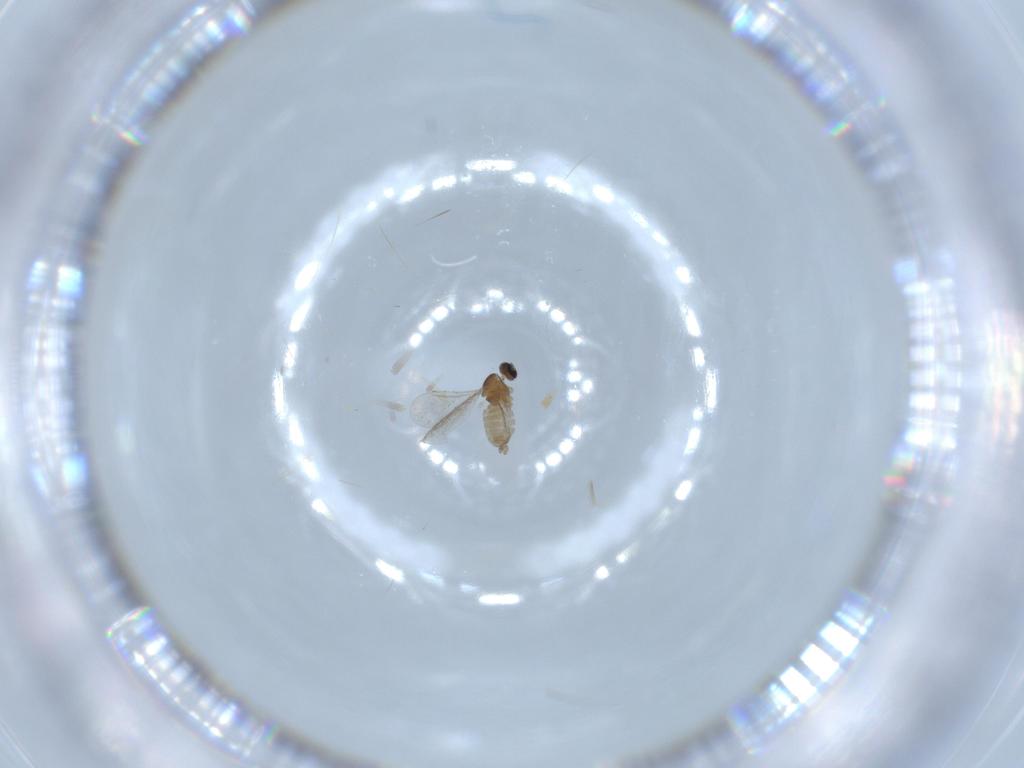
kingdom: Animalia
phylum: Arthropoda
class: Insecta
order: Diptera
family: Cecidomyiidae
